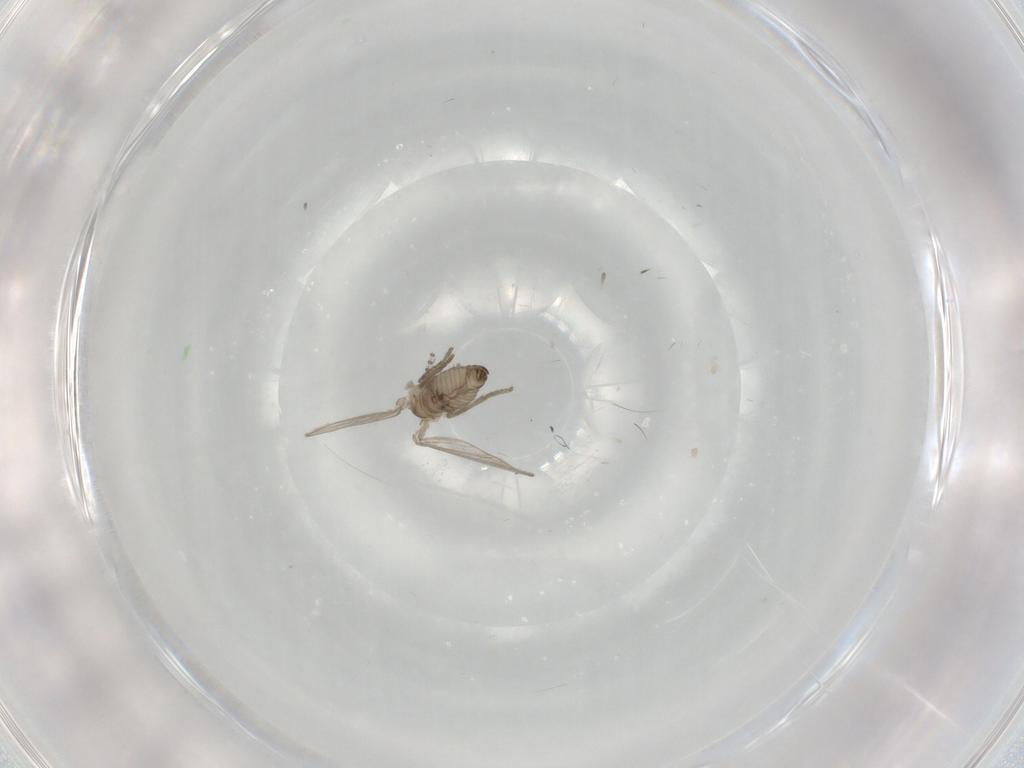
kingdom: Animalia
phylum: Arthropoda
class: Insecta
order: Diptera
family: Psychodidae
